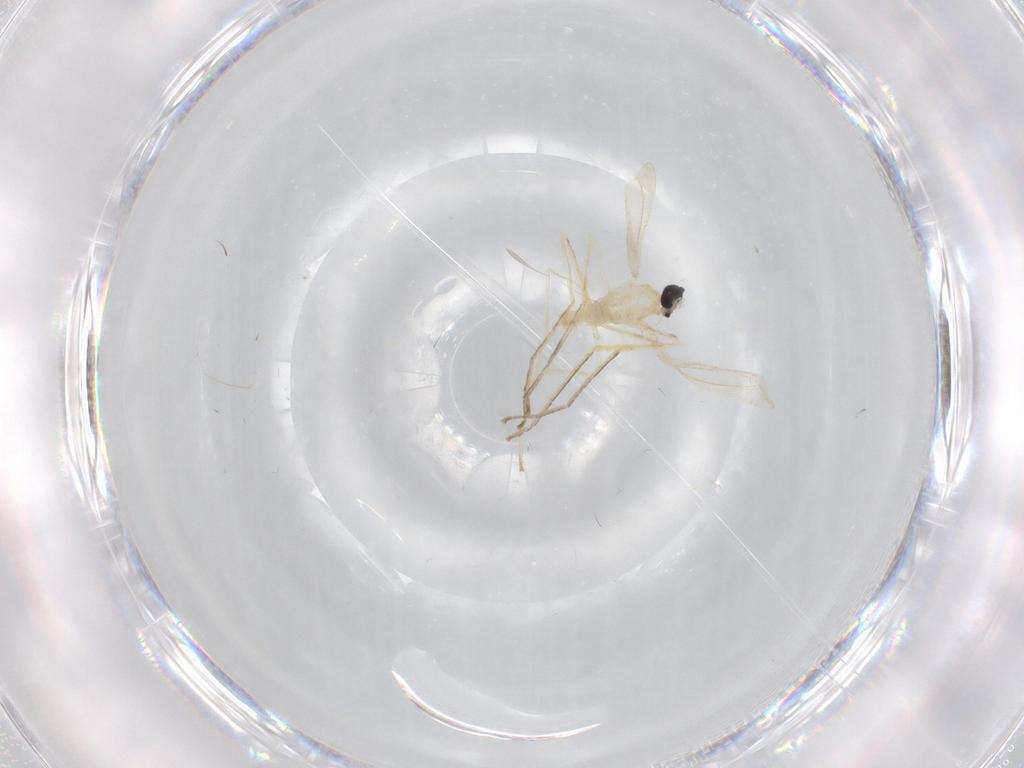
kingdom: Animalia
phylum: Arthropoda
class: Insecta
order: Diptera
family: Cecidomyiidae
